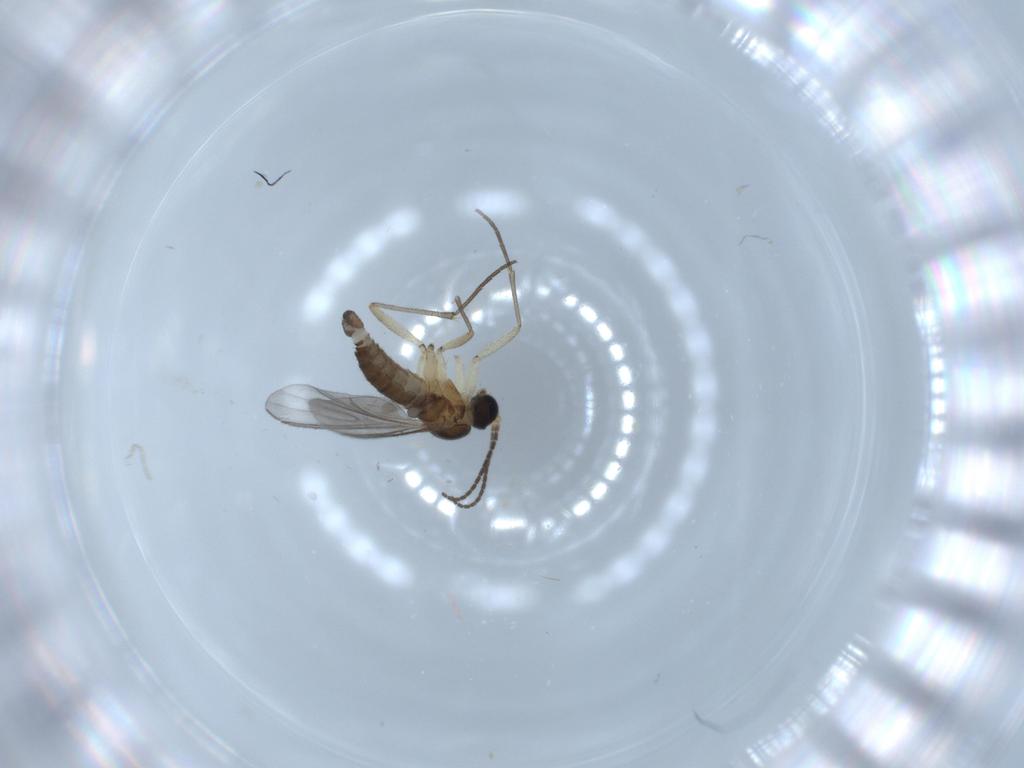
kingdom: Animalia
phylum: Arthropoda
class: Insecta
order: Diptera
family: Sciaridae
